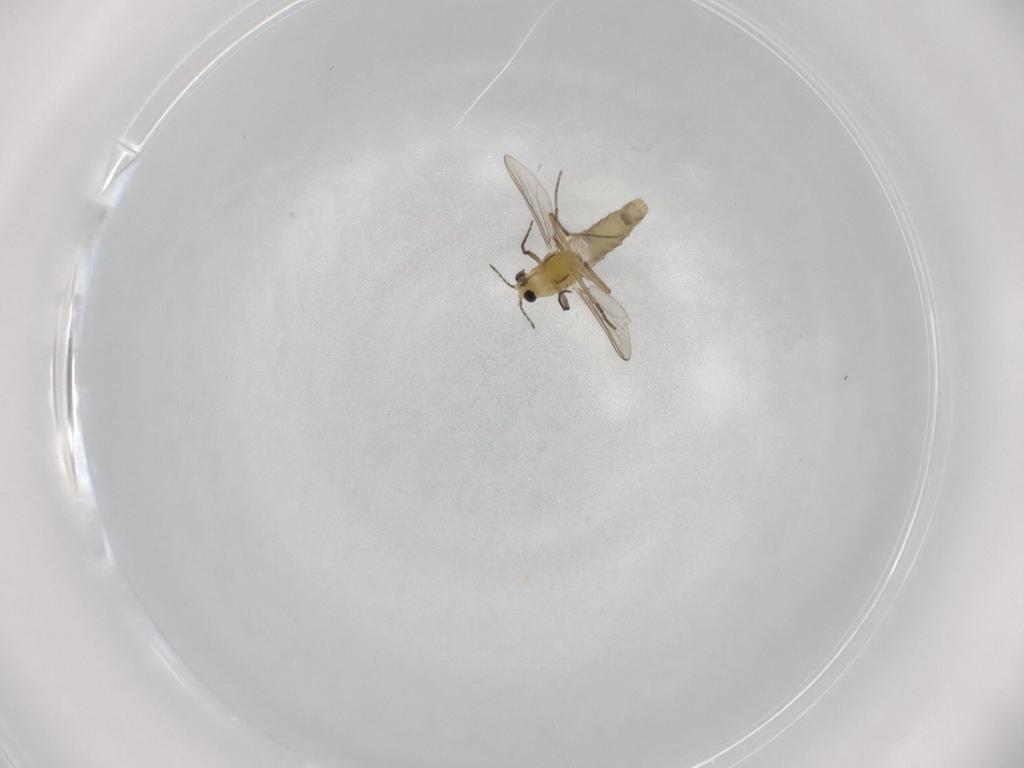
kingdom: Animalia
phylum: Arthropoda
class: Insecta
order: Diptera
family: Chironomidae
